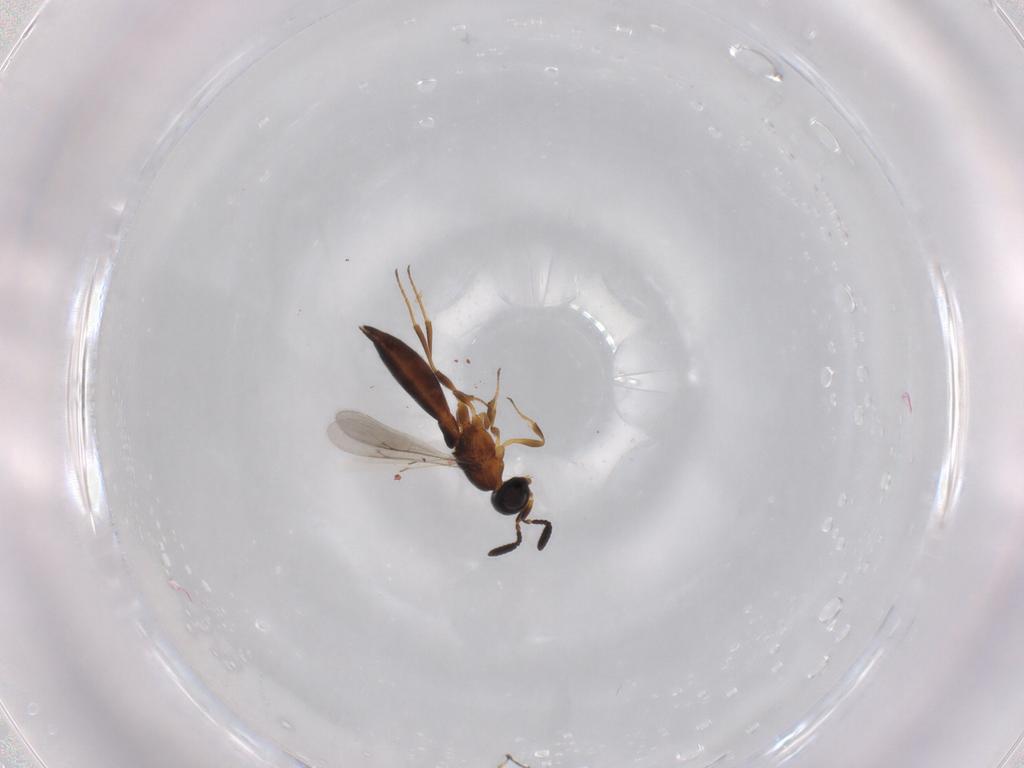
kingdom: Animalia
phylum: Arthropoda
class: Insecta
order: Hymenoptera
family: Scelionidae
